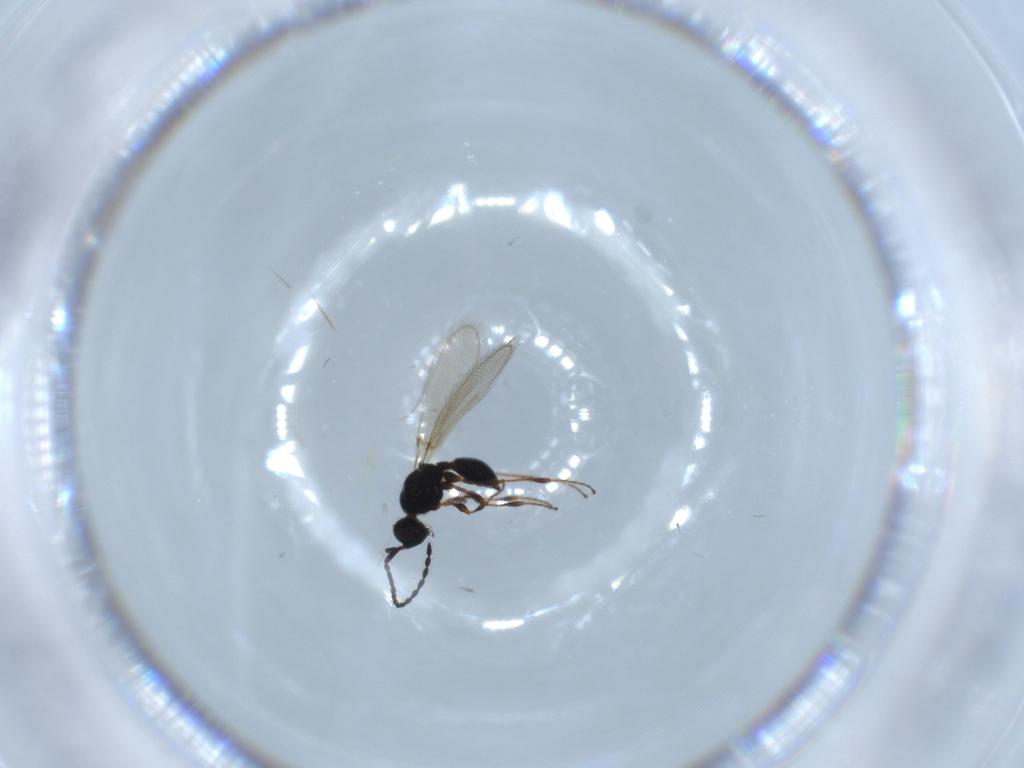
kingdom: Animalia
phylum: Arthropoda
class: Insecta
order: Hymenoptera
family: Diapriidae
